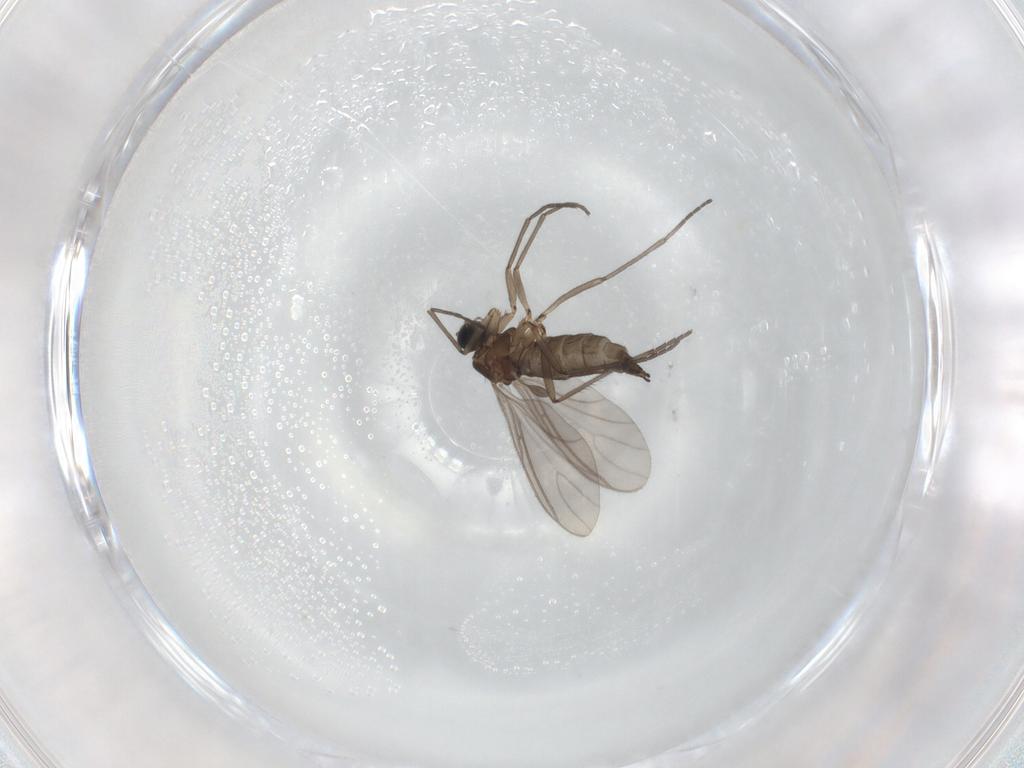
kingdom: Animalia
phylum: Arthropoda
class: Insecta
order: Diptera
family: Sciaridae
